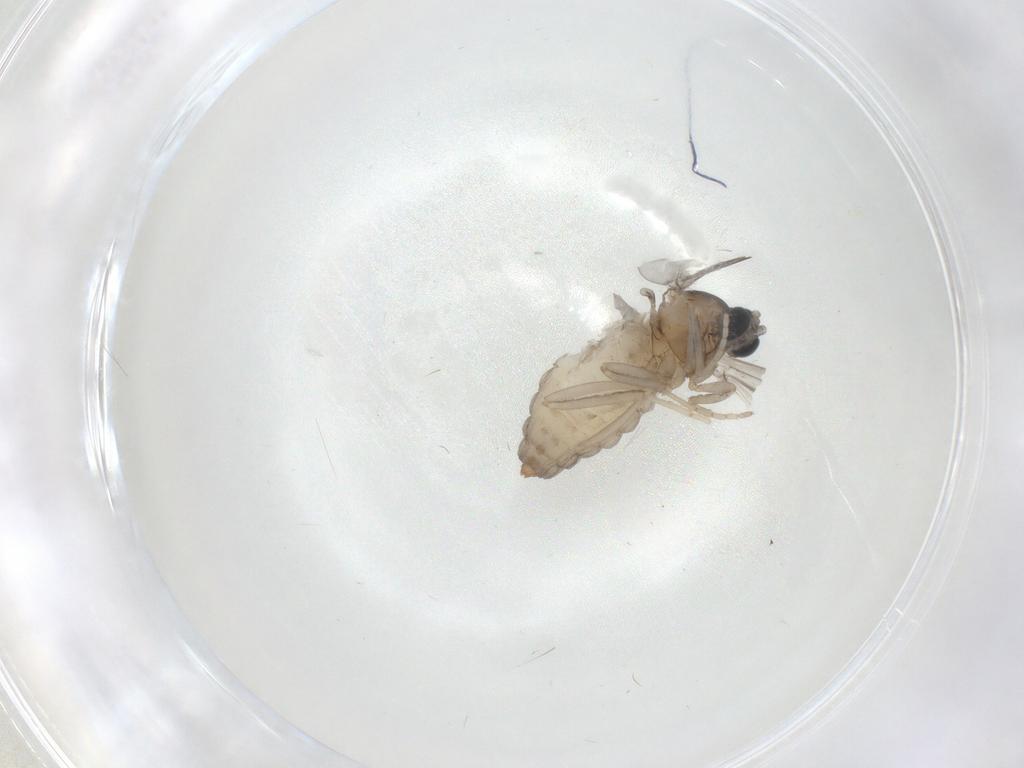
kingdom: Animalia
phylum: Arthropoda
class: Insecta
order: Diptera
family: Cecidomyiidae
